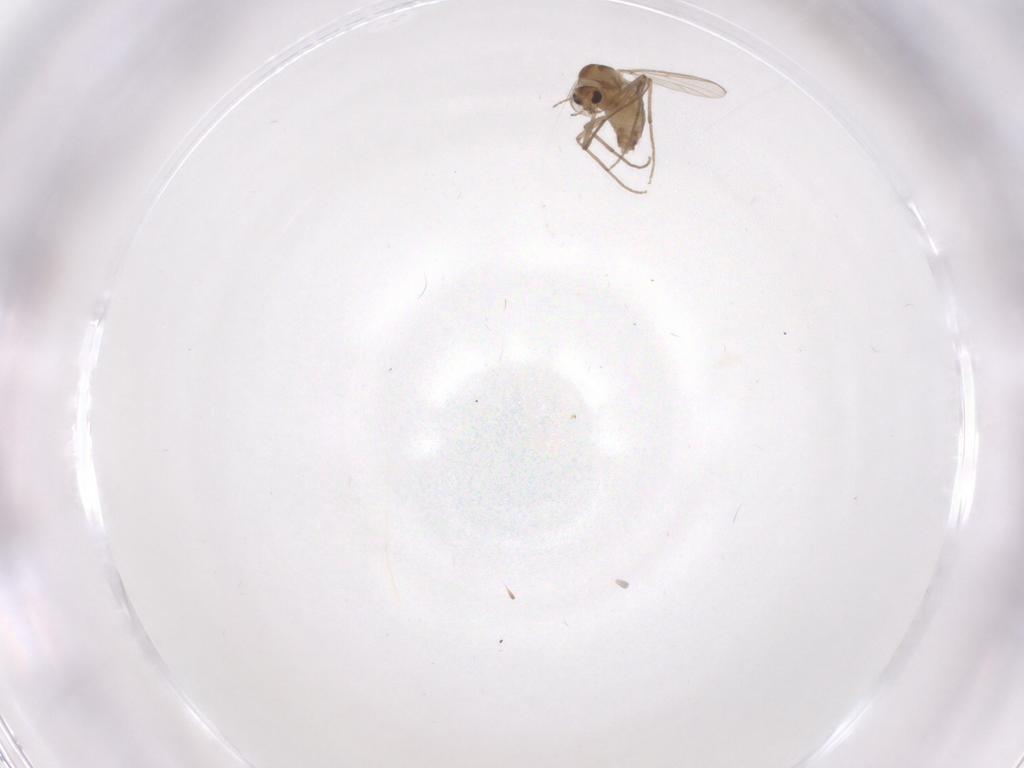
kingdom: Animalia
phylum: Arthropoda
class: Insecta
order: Diptera
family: Chironomidae
